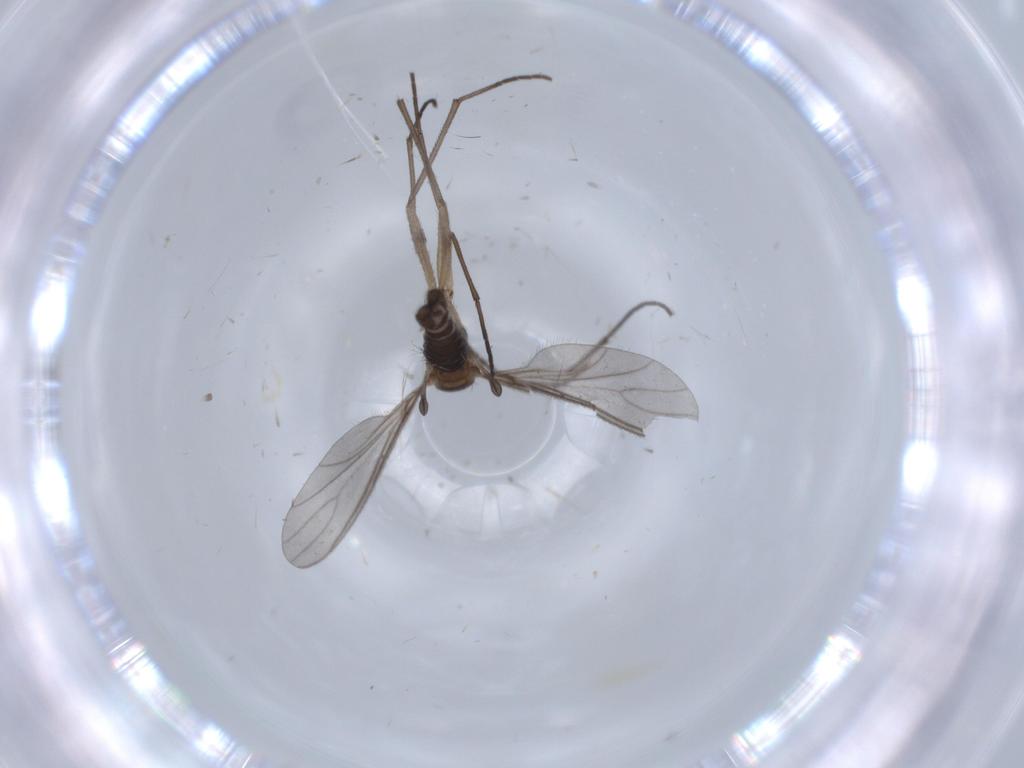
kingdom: Animalia
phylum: Arthropoda
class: Insecta
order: Diptera
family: Sciaridae
